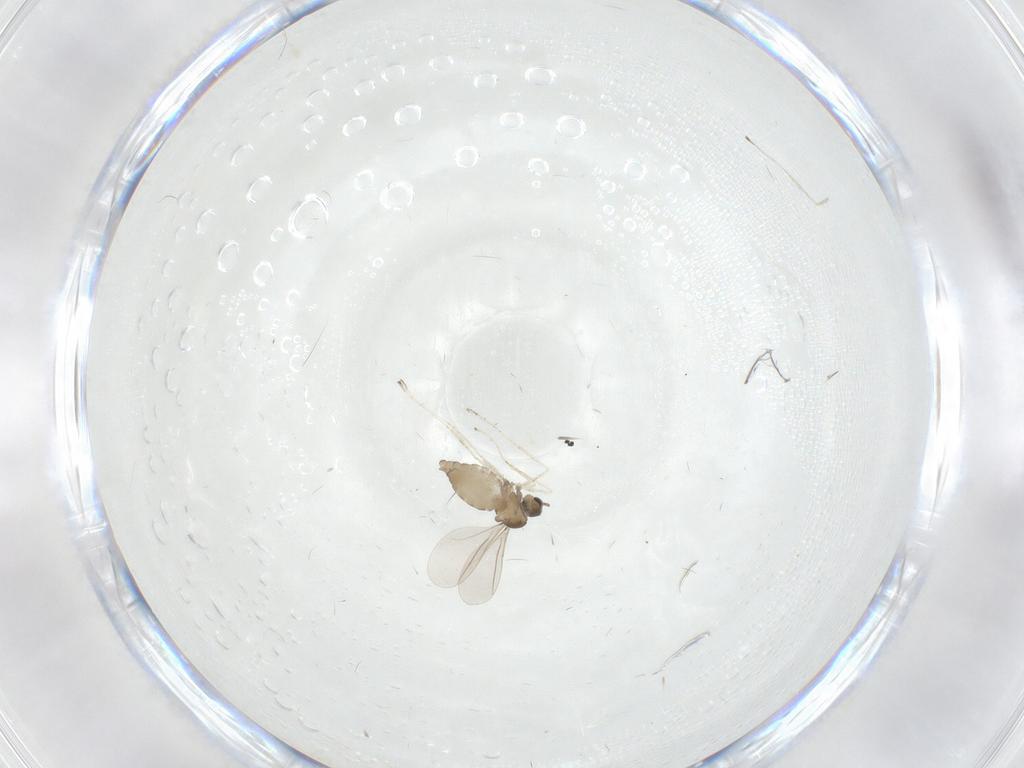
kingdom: Animalia
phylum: Arthropoda
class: Insecta
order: Diptera
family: Cecidomyiidae
